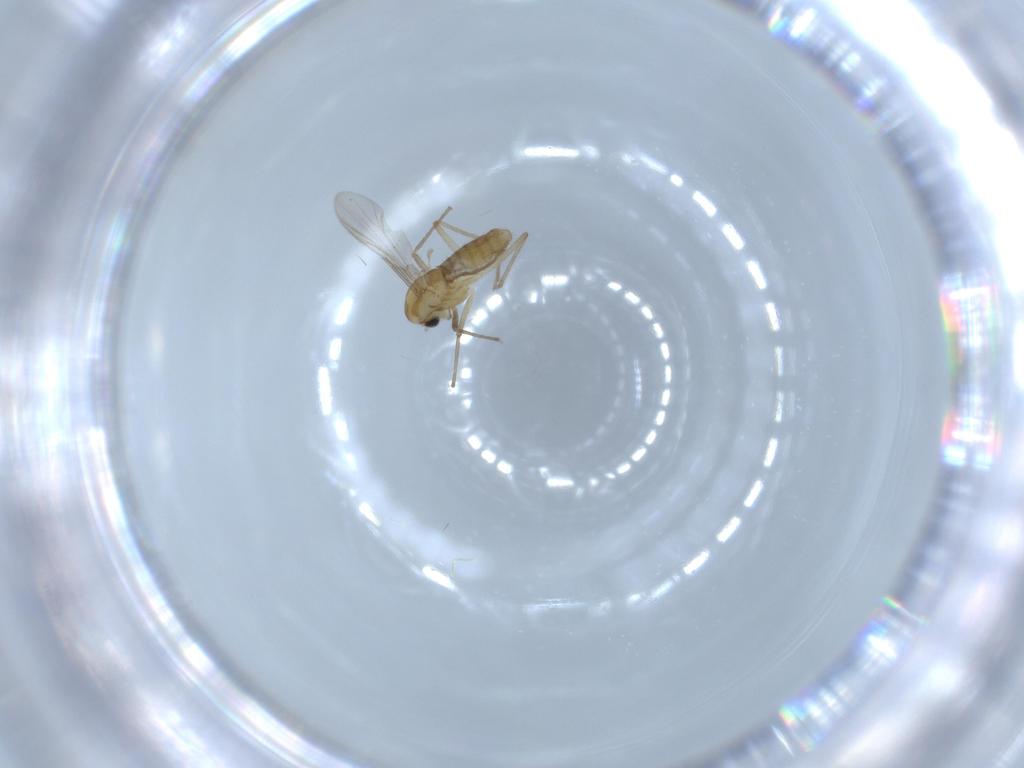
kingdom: Animalia
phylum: Arthropoda
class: Insecta
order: Diptera
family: Chironomidae
